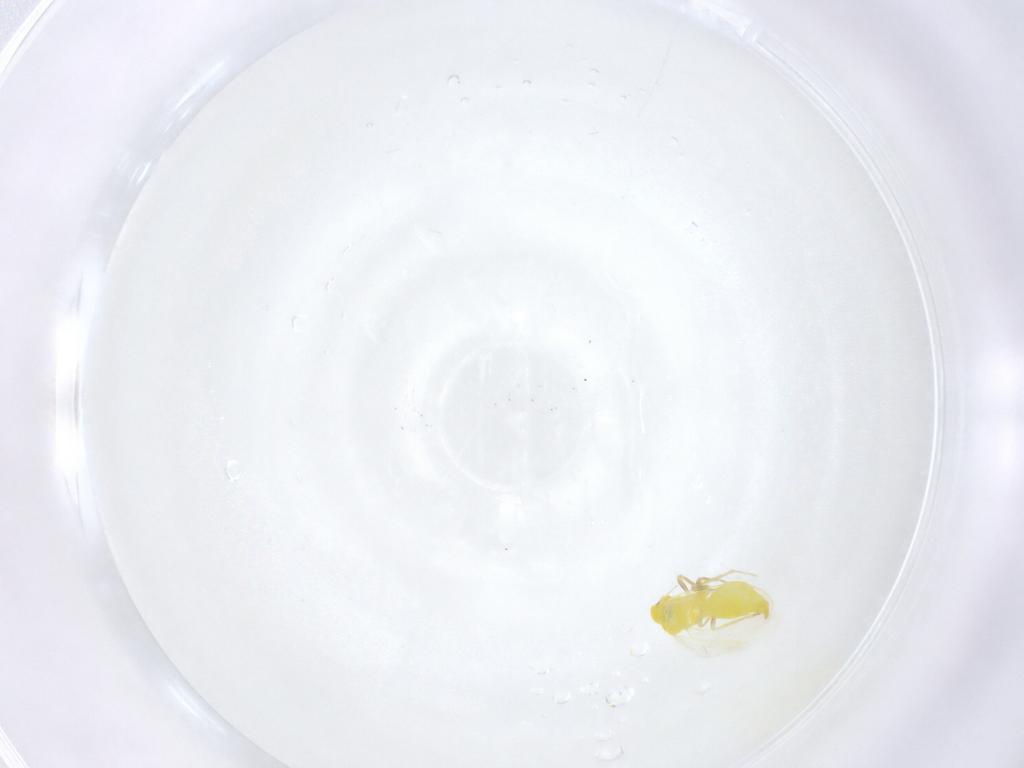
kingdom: Animalia
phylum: Arthropoda
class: Insecta
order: Hemiptera
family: Aleyrodidae
